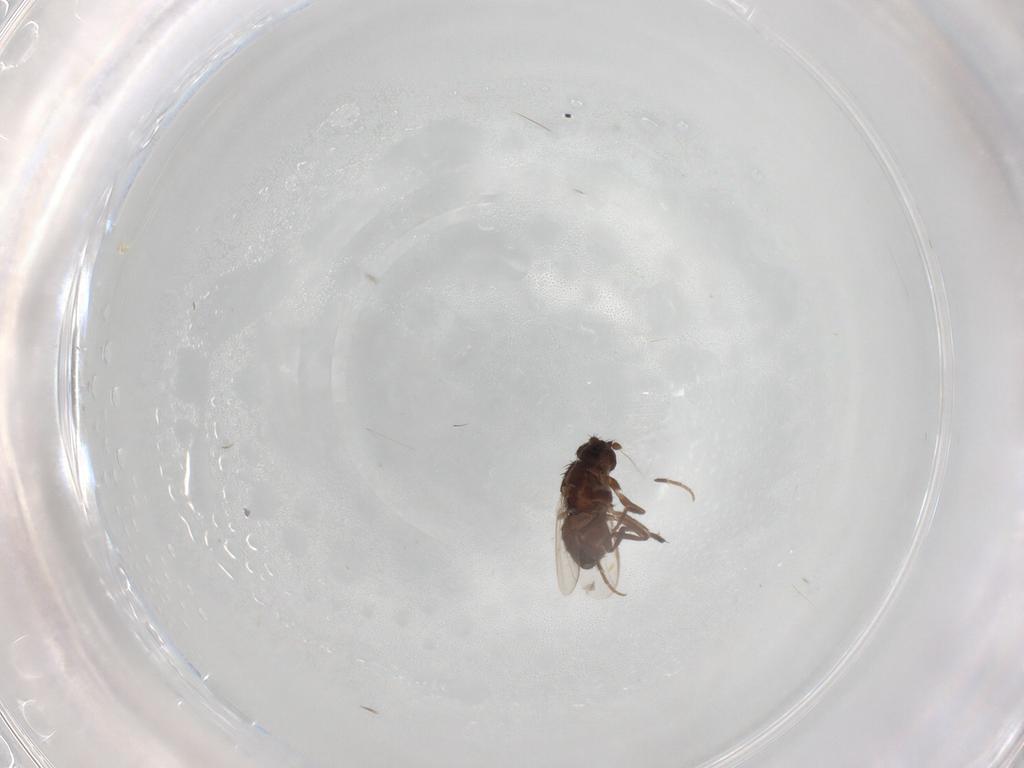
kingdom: Animalia
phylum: Arthropoda
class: Insecta
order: Diptera
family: Sphaeroceridae
